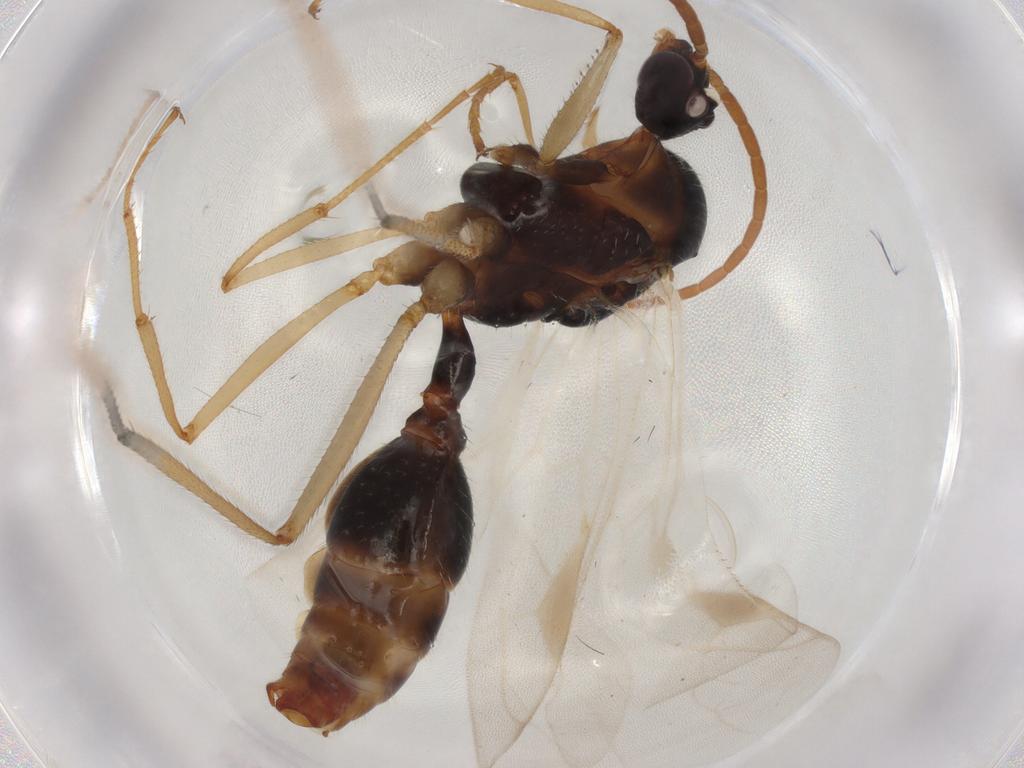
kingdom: Animalia
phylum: Arthropoda
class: Insecta
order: Hymenoptera
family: Formicidae
